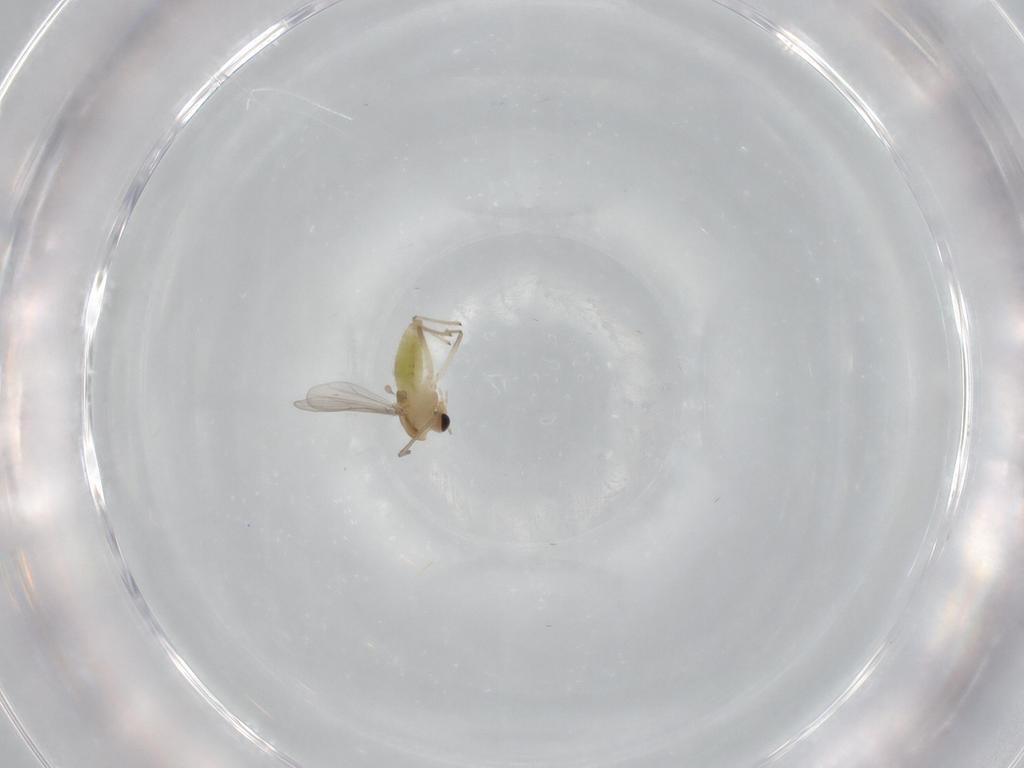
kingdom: Animalia
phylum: Arthropoda
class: Insecta
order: Diptera
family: Chironomidae
